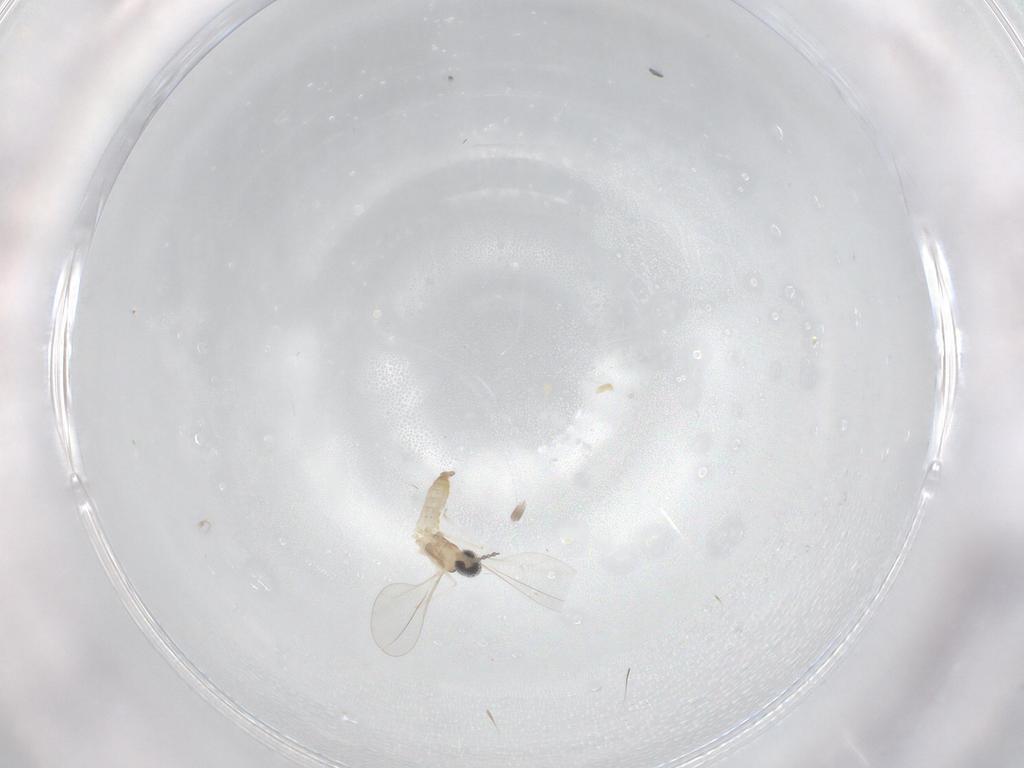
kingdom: Animalia
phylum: Arthropoda
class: Insecta
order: Diptera
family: Cecidomyiidae
